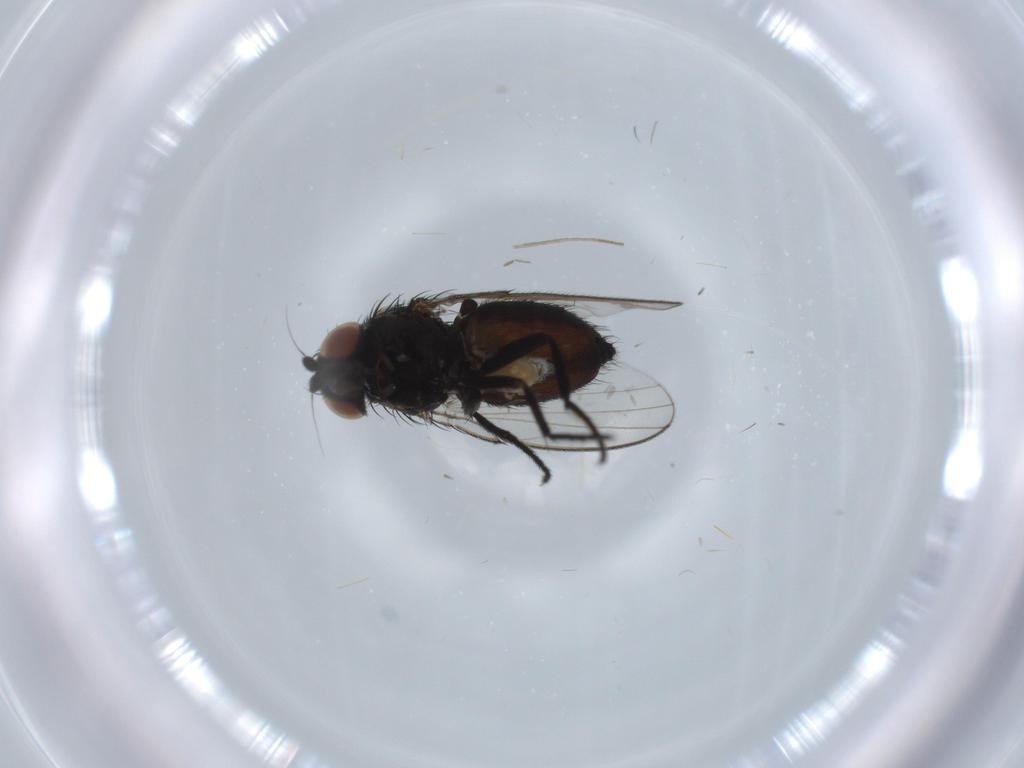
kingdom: Animalia
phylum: Arthropoda
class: Insecta
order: Diptera
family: Milichiidae
